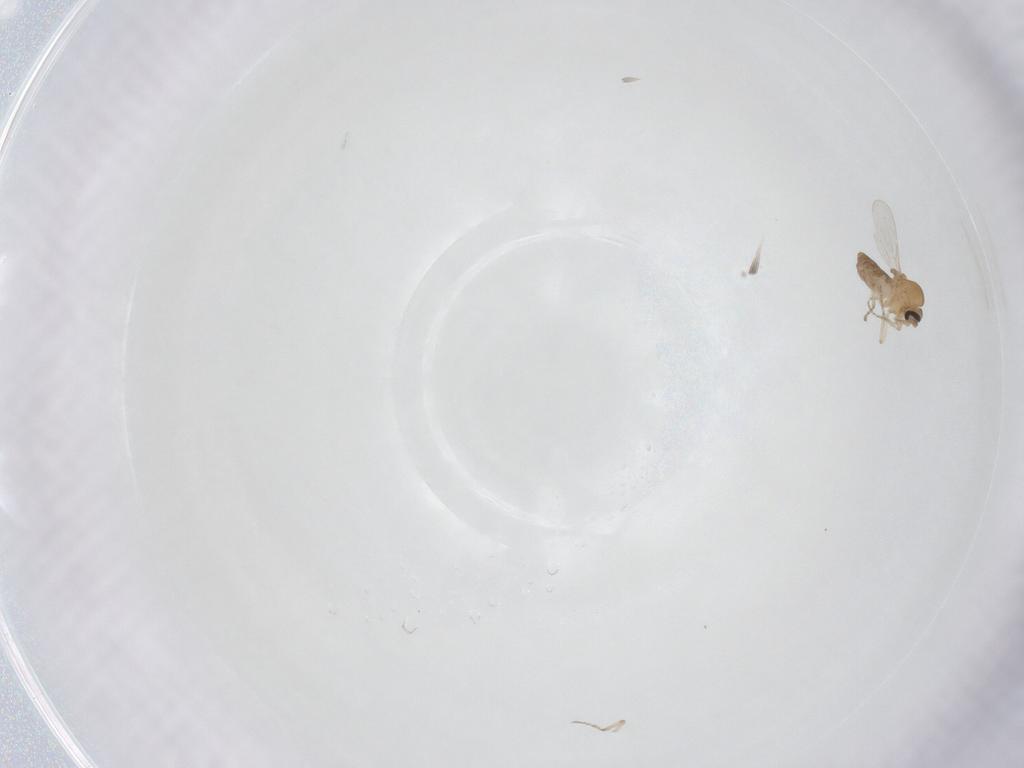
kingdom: Animalia
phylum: Arthropoda
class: Insecta
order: Diptera
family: Ceratopogonidae
